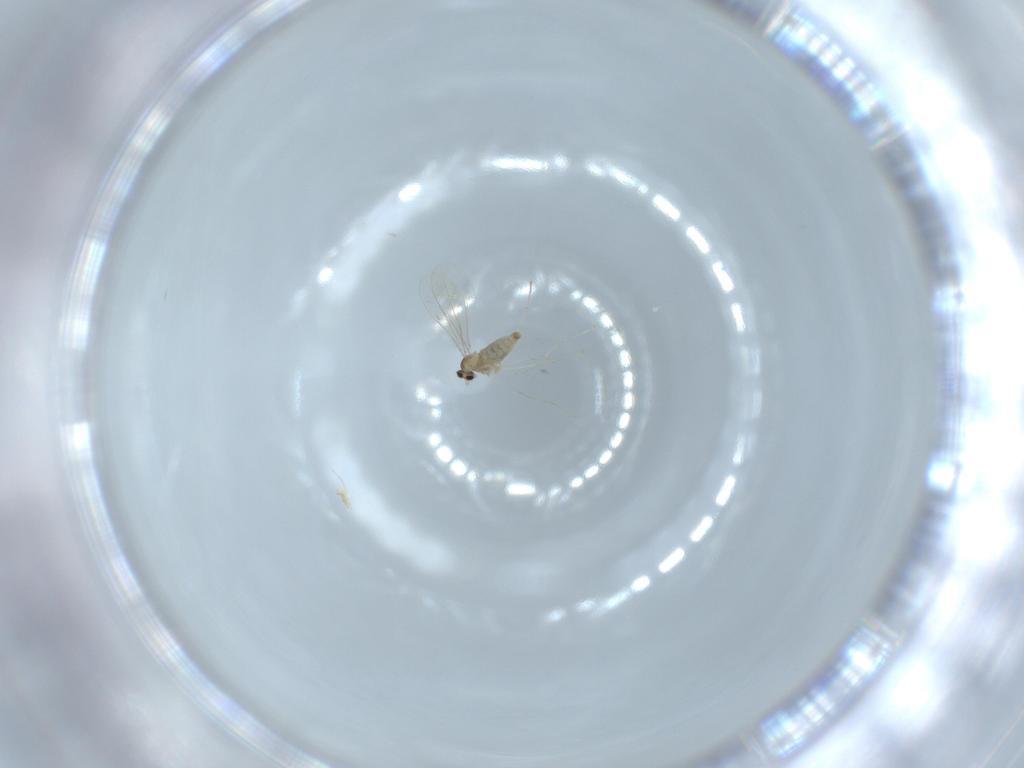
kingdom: Animalia
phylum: Arthropoda
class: Insecta
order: Diptera
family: Cecidomyiidae
